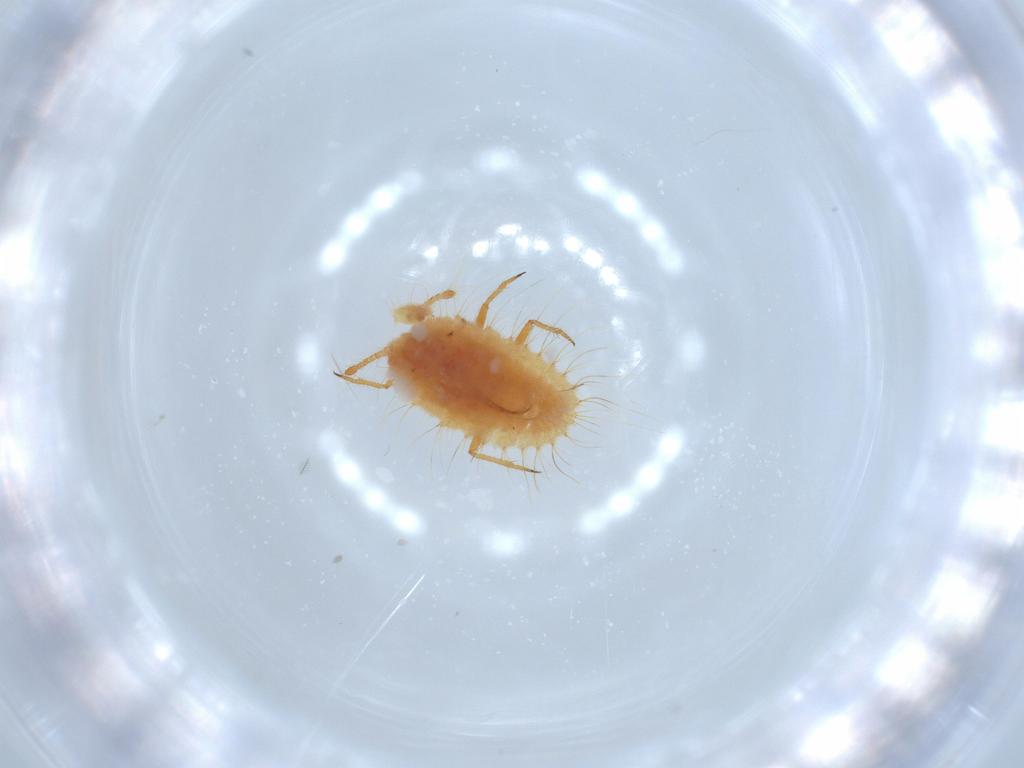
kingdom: Animalia
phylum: Arthropoda
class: Insecta
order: Hemiptera
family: Coccoidea_incertae_sedis
